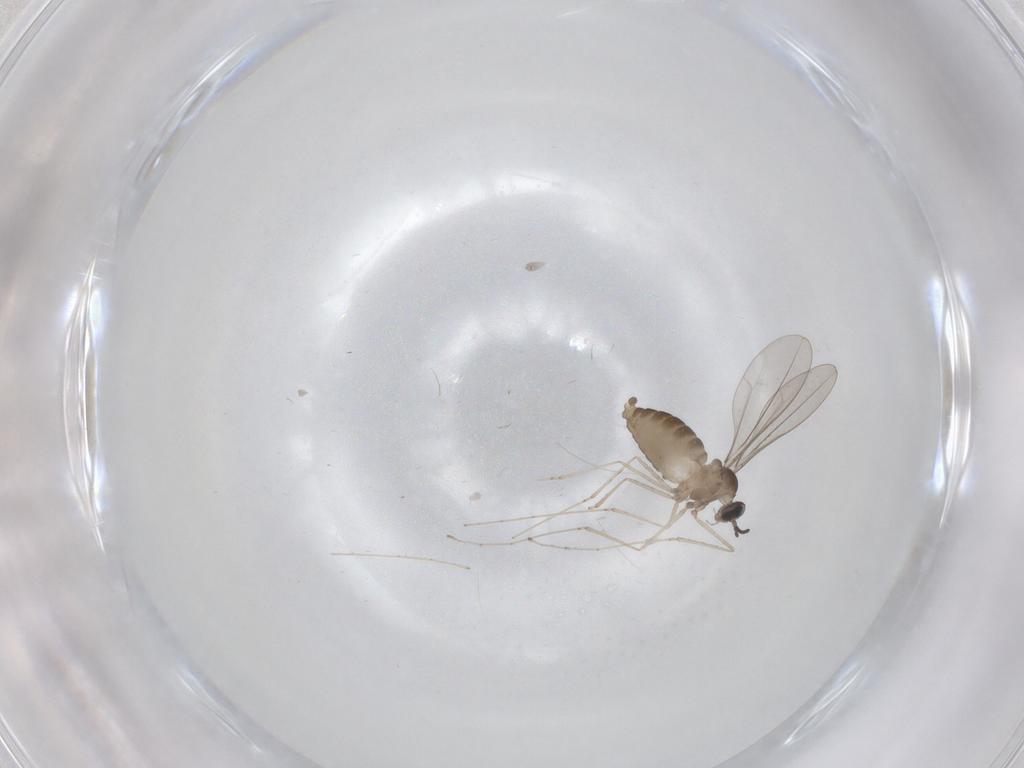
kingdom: Animalia
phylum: Arthropoda
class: Insecta
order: Diptera
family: Cecidomyiidae
